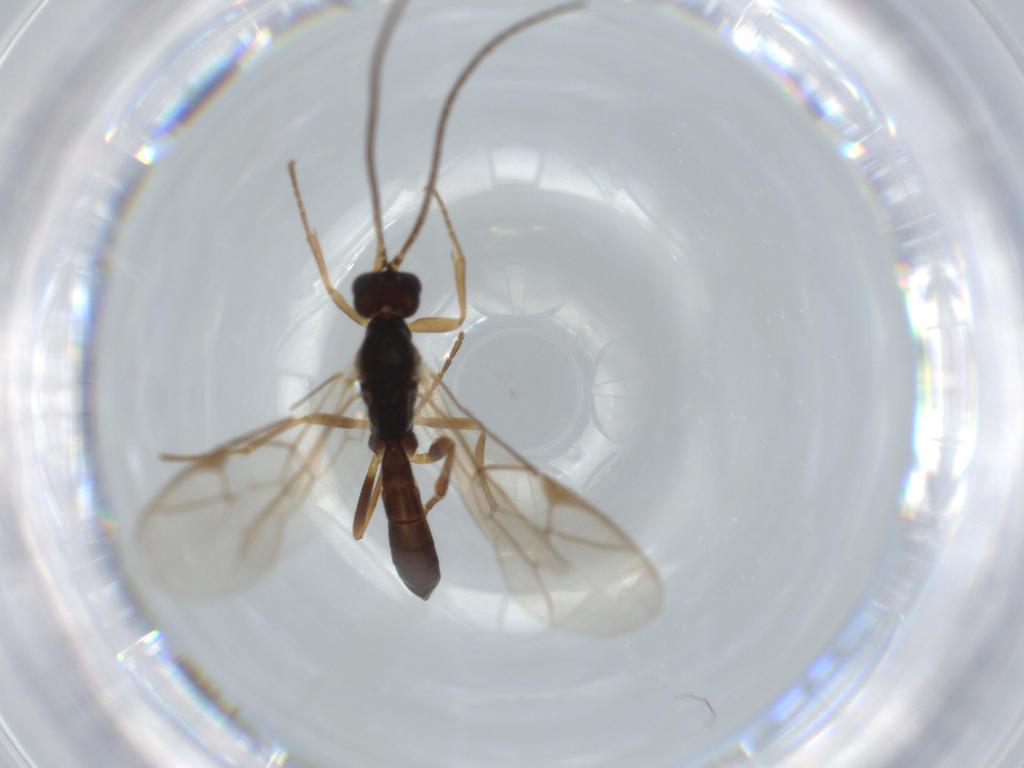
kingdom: Animalia
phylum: Arthropoda
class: Insecta
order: Hymenoptera
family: Ichneumonidae
